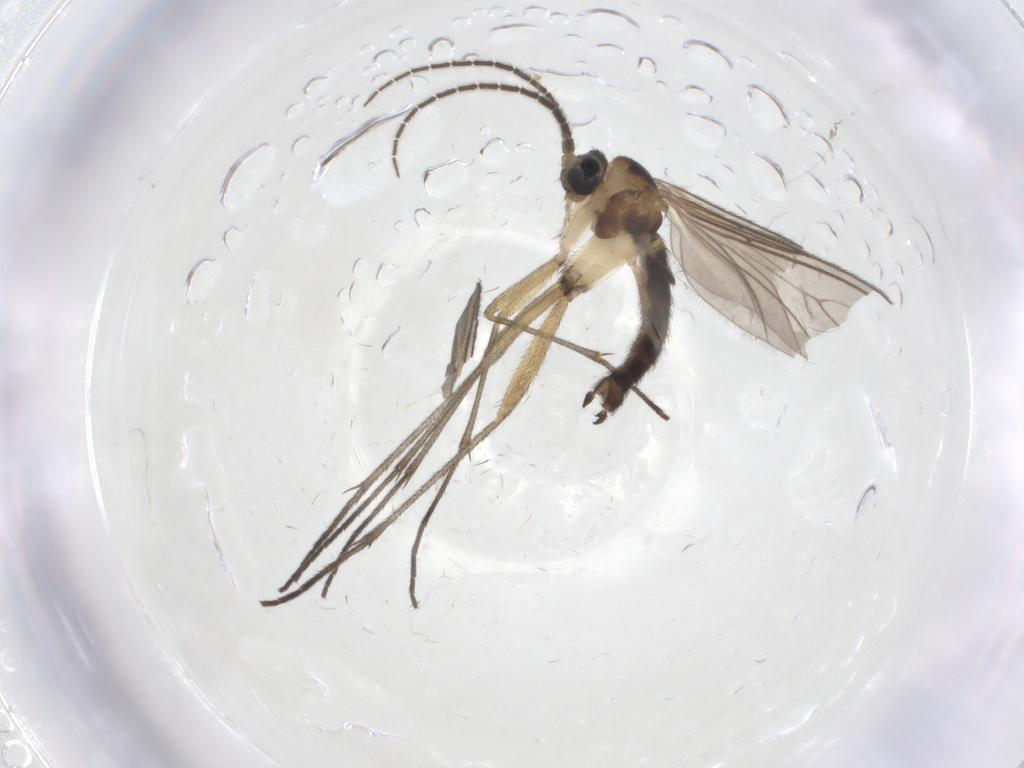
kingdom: Animalia
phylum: Arthropoda
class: Insecta
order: Diptera
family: Sciaridae
